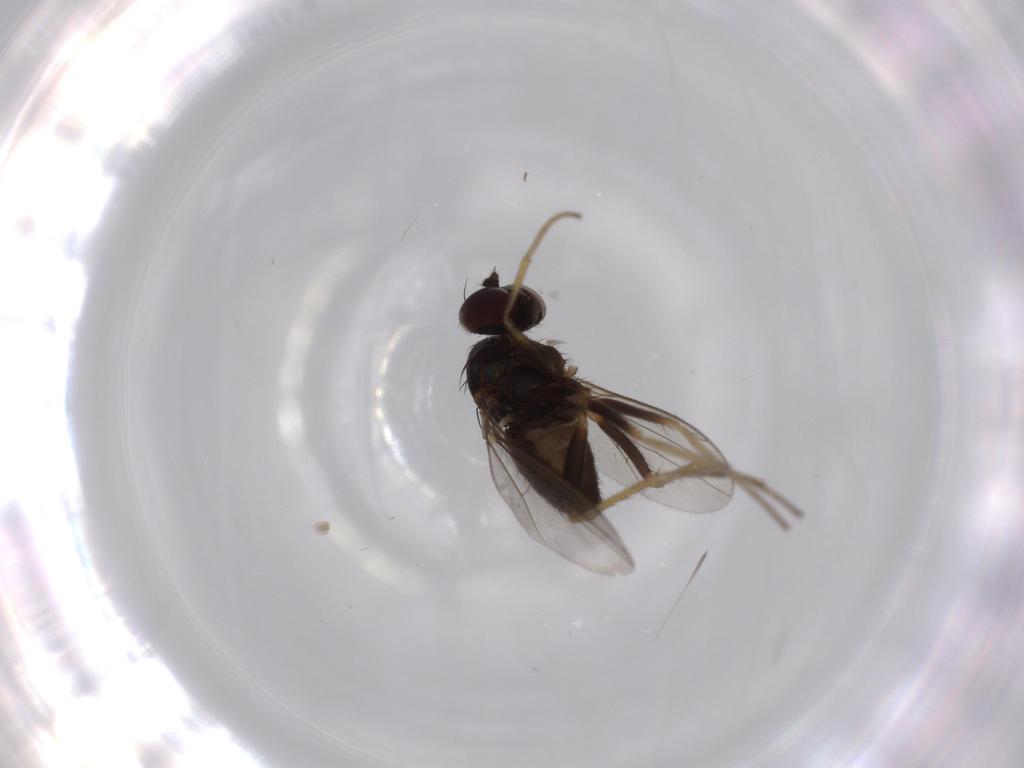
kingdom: Animalia
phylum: Arthropoda
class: Insecta
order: Diptera
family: Dolichopodidae
